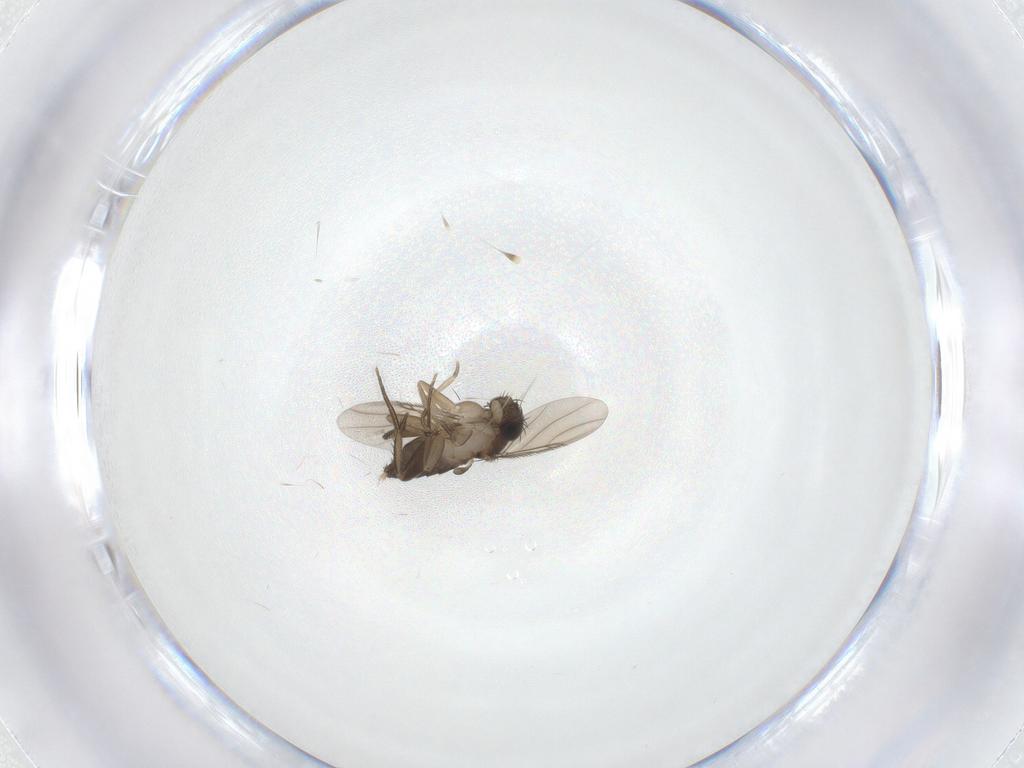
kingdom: Animalia
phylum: Arthropoda
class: Insecta
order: Diptera
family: Phoridae
